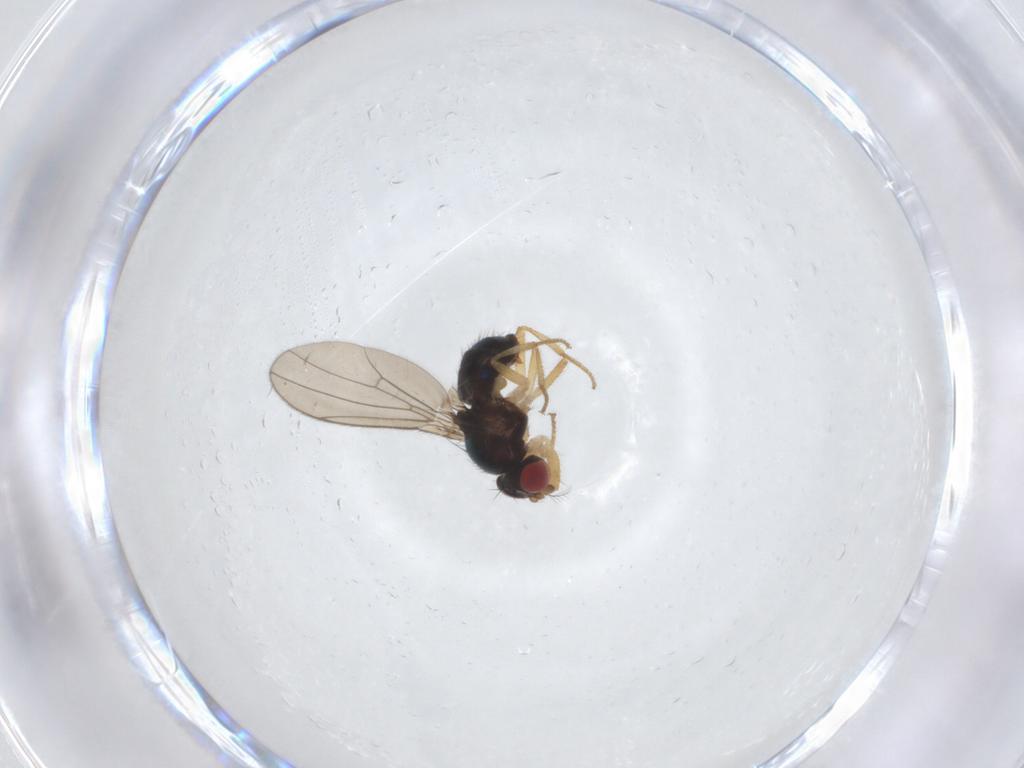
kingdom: Animalia
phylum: Arthropoda
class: Insecta
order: Diptera
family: Drosophilidae
